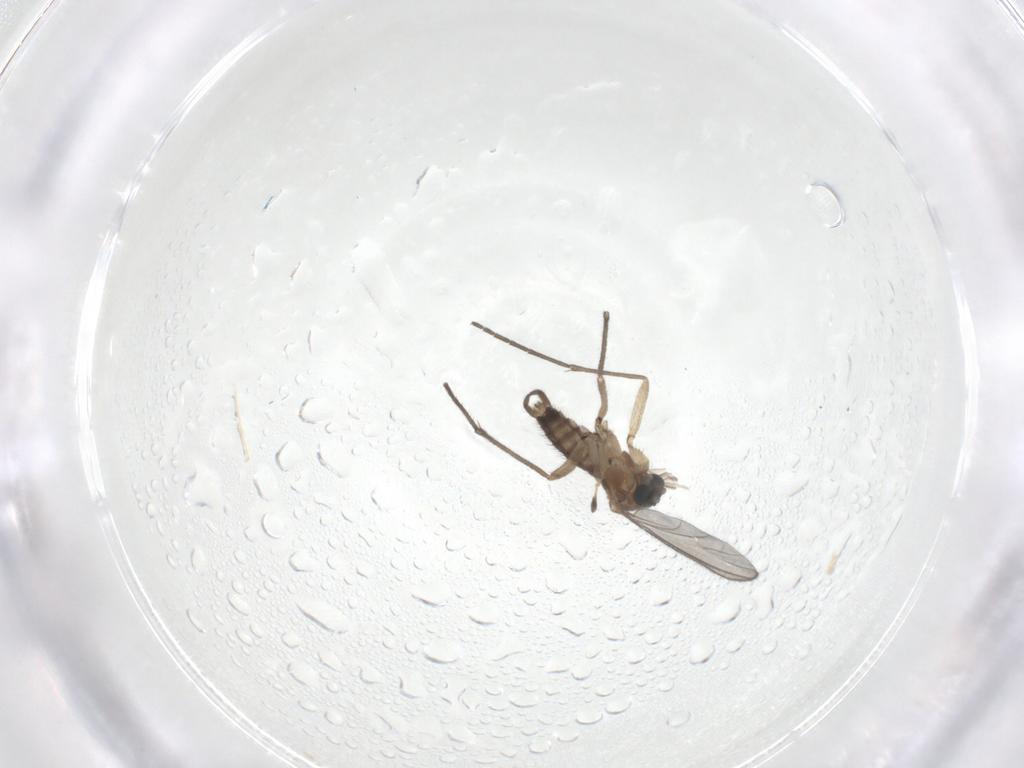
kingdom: Animalia
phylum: Arthropoda
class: Insecta
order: Diptera
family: Sciaridae
